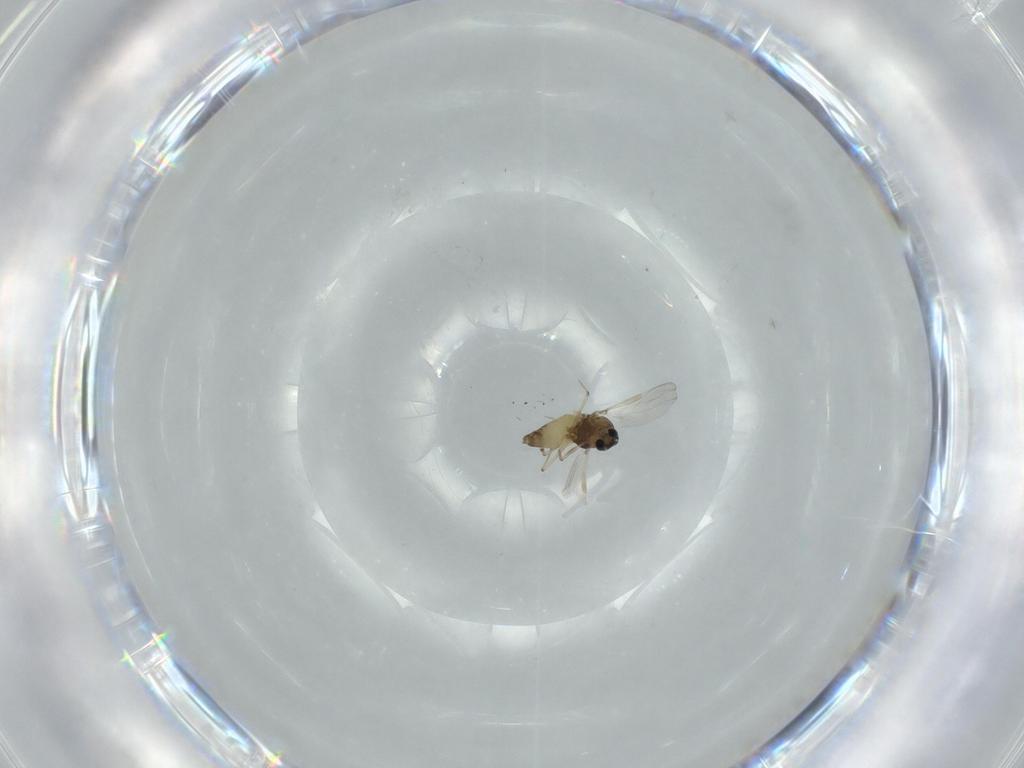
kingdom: Animalia
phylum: Arthropoda
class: Insecta
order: Diptera
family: Chironomidae
